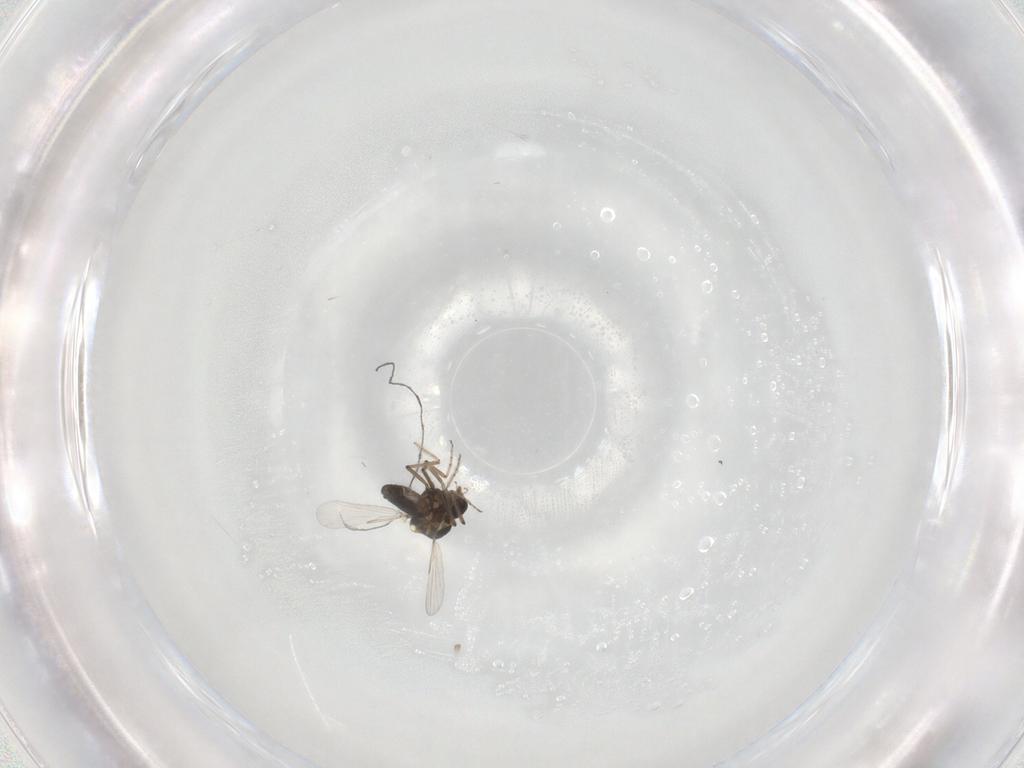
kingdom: Animalia
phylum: Arthropoda
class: Insecta
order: Diptera
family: Ceratopogonidae
